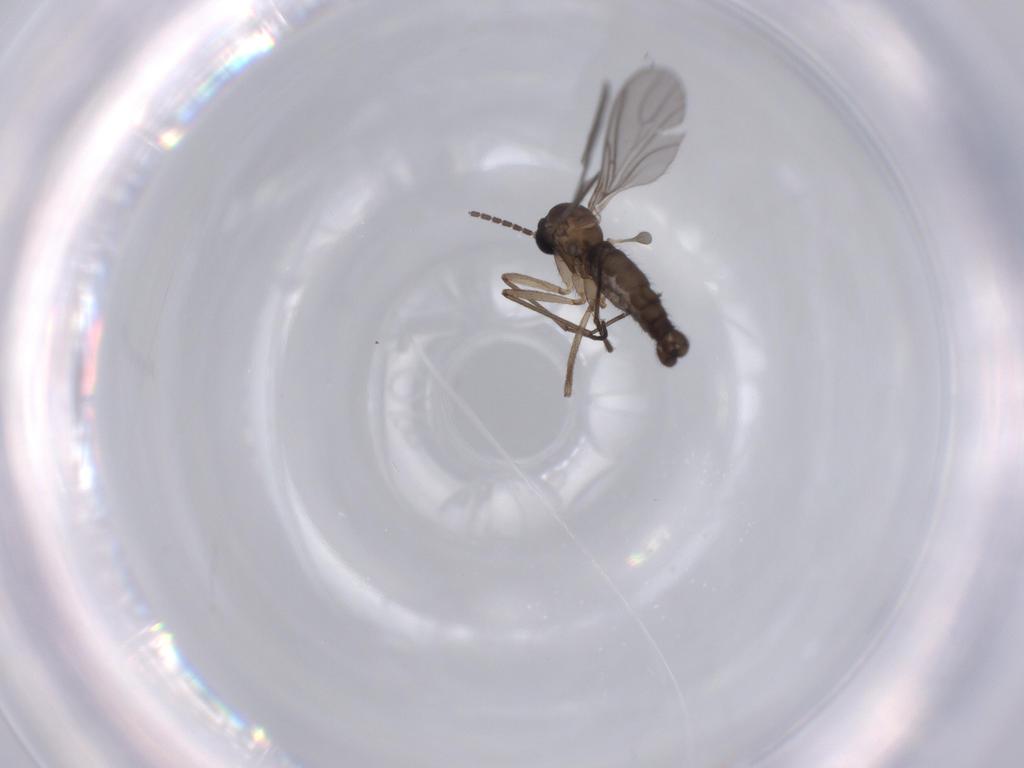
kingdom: Animalia
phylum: Arthropoda
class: Insecta
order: Diptera
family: Sciaridae
